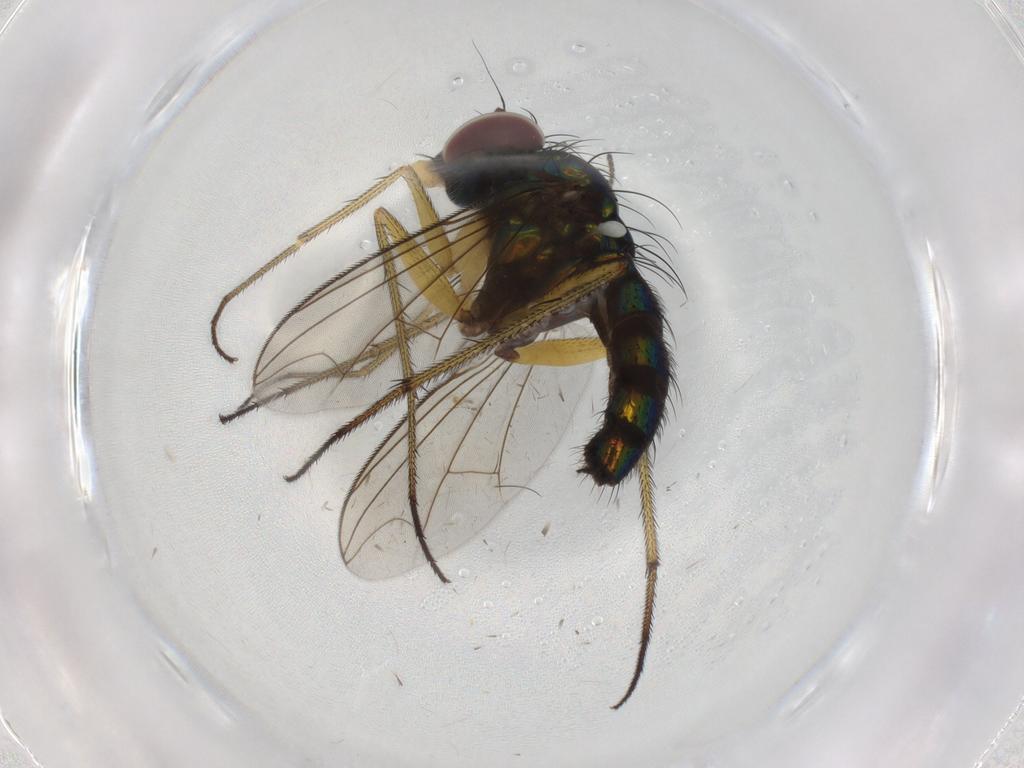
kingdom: Animalia
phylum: Arthropoda
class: Insecta
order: Diptera
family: Dolichopodidae
